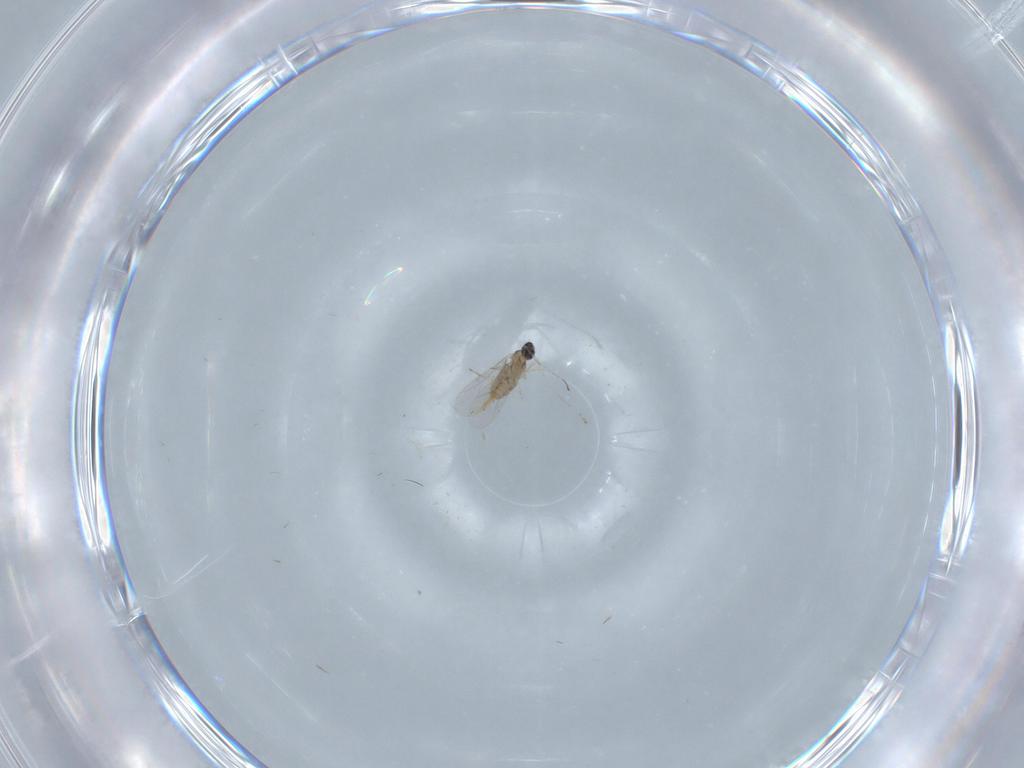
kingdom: Animalia
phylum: Arthropoda
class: Insecta
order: Diptera
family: Cecidomyiidae
